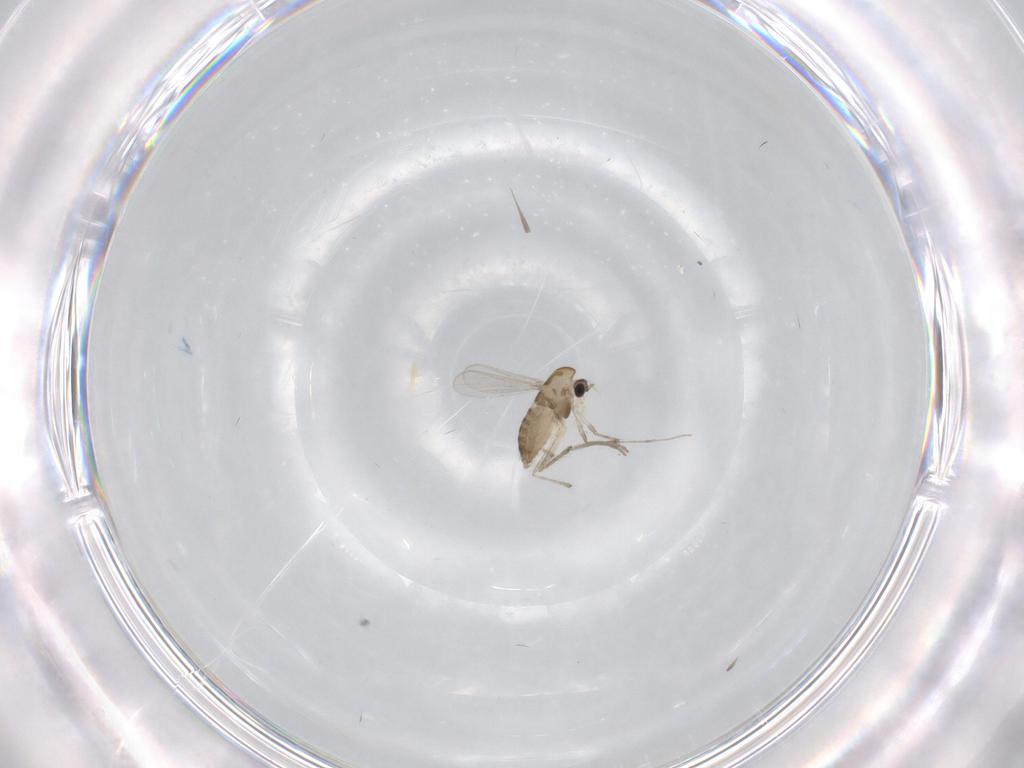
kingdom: Animalia
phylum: Arthropoda
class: Insecta
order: Diptera
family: Chironomidae
